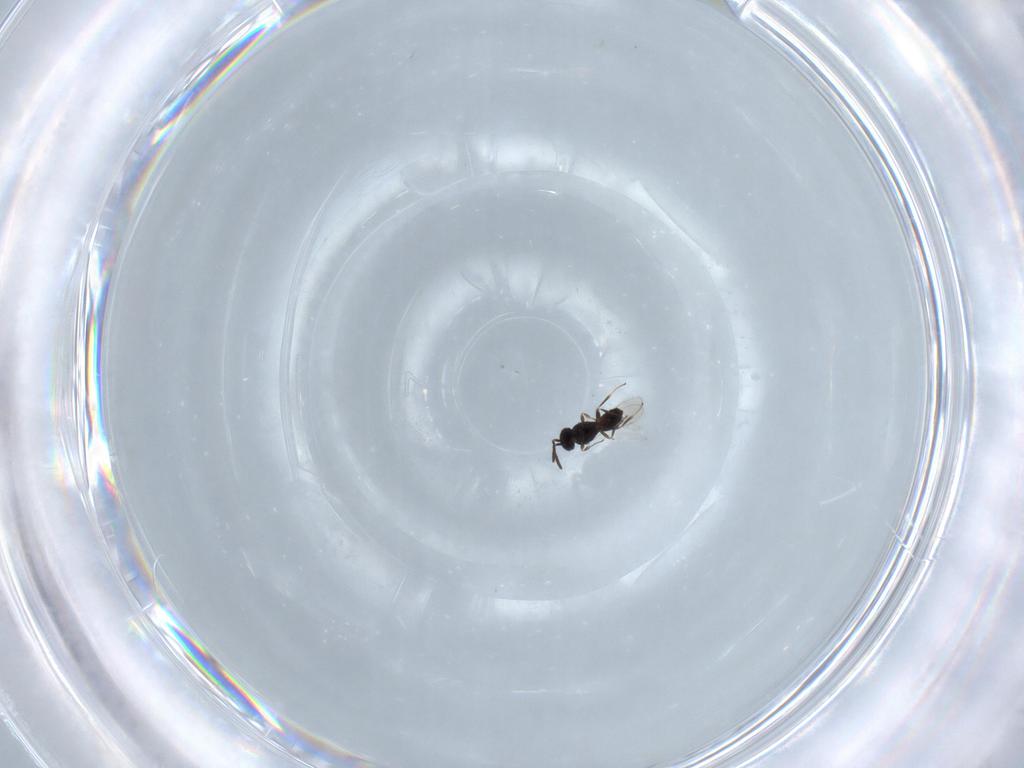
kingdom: Animalia
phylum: Arthropoda
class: Insecta
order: Hymenoptera
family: Scelionidae
